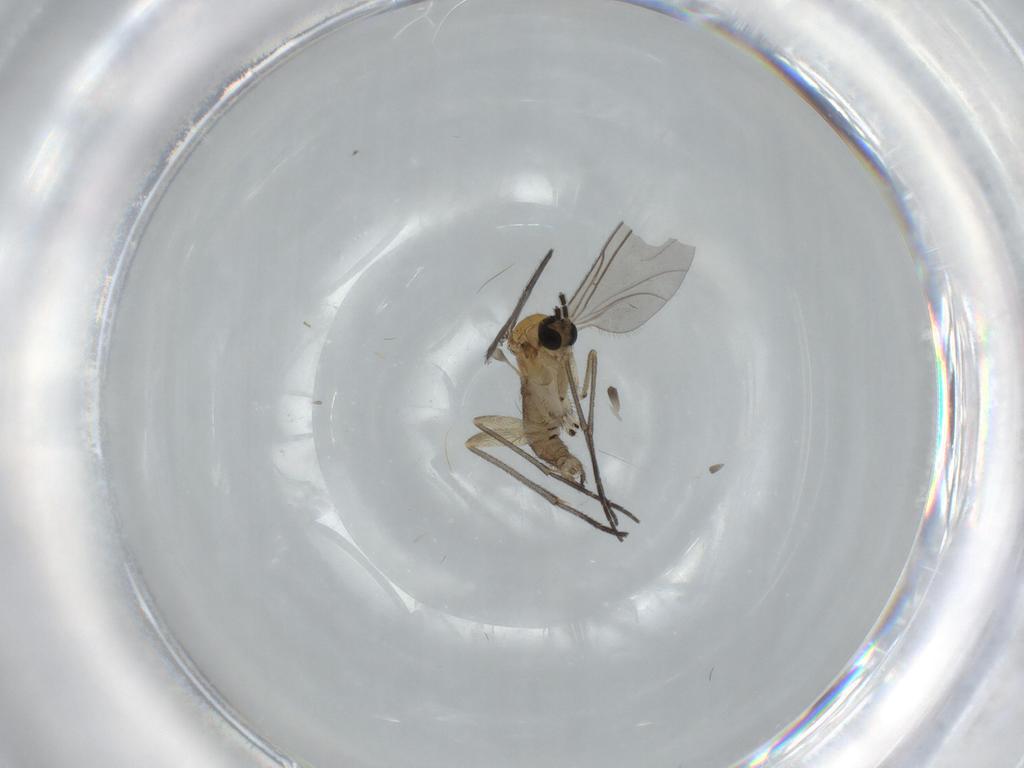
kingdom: Animalia
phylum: Arthropoda
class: Insecta
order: Diptera
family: Sciaridae
